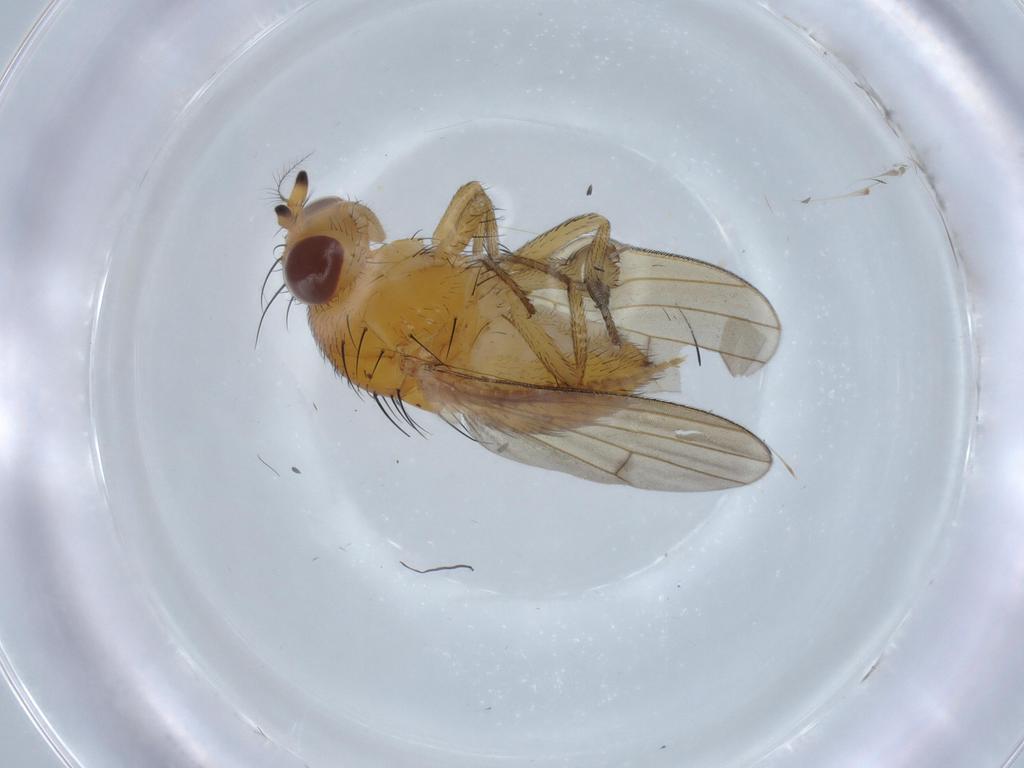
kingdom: Animalia
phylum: Arthropoda
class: Insecta
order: Diptera
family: Lauxaniidae
